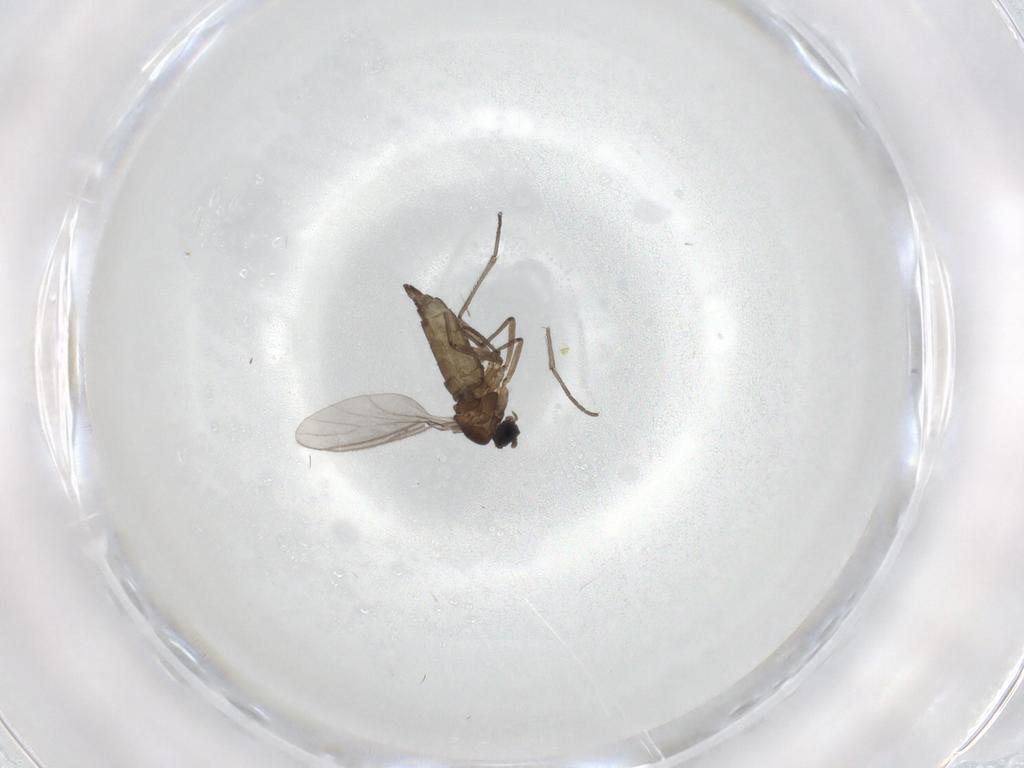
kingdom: Animalia
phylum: Arthropoda
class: Insecta
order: Diptera
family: Sciaridae
